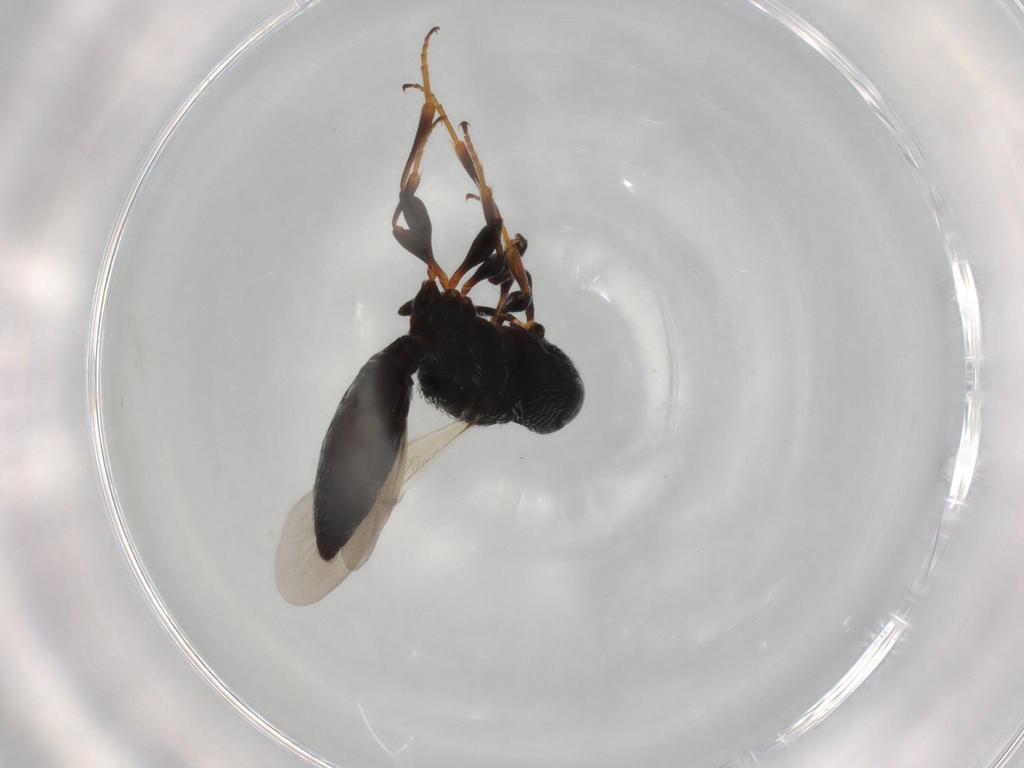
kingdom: Animalia
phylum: Arthropoda
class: Insecta
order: Hymenoptera
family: Scelionidae
